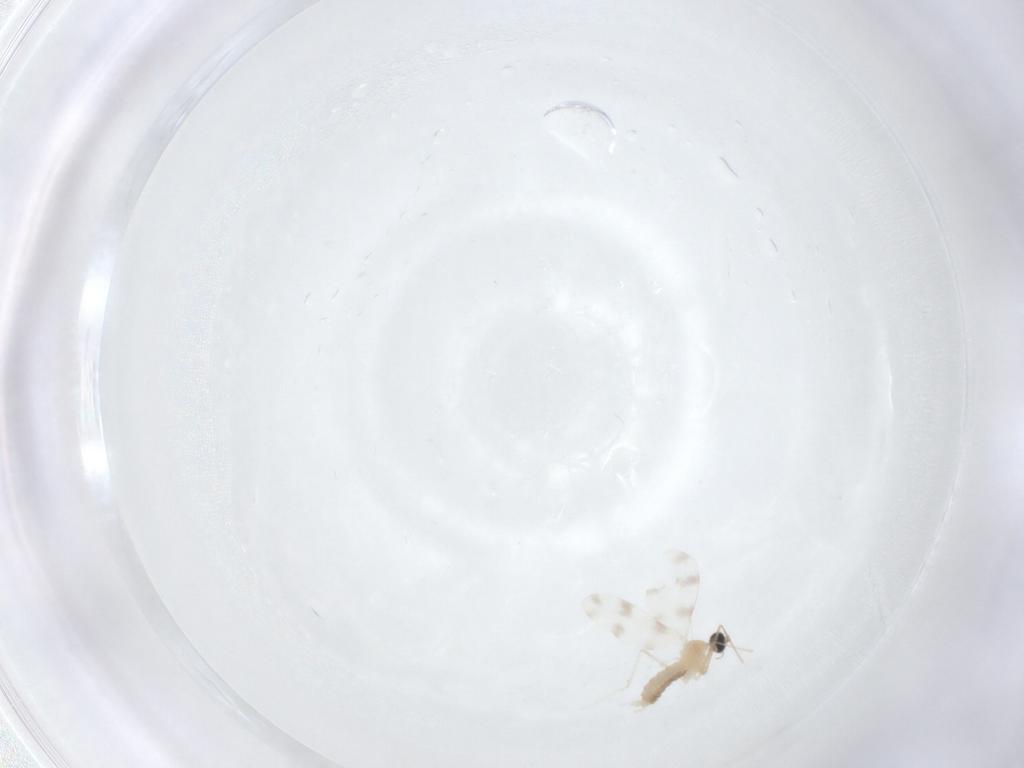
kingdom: Animalia
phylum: Arthropoda
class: Insecta
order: Diptera
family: Cecidomyiidae
